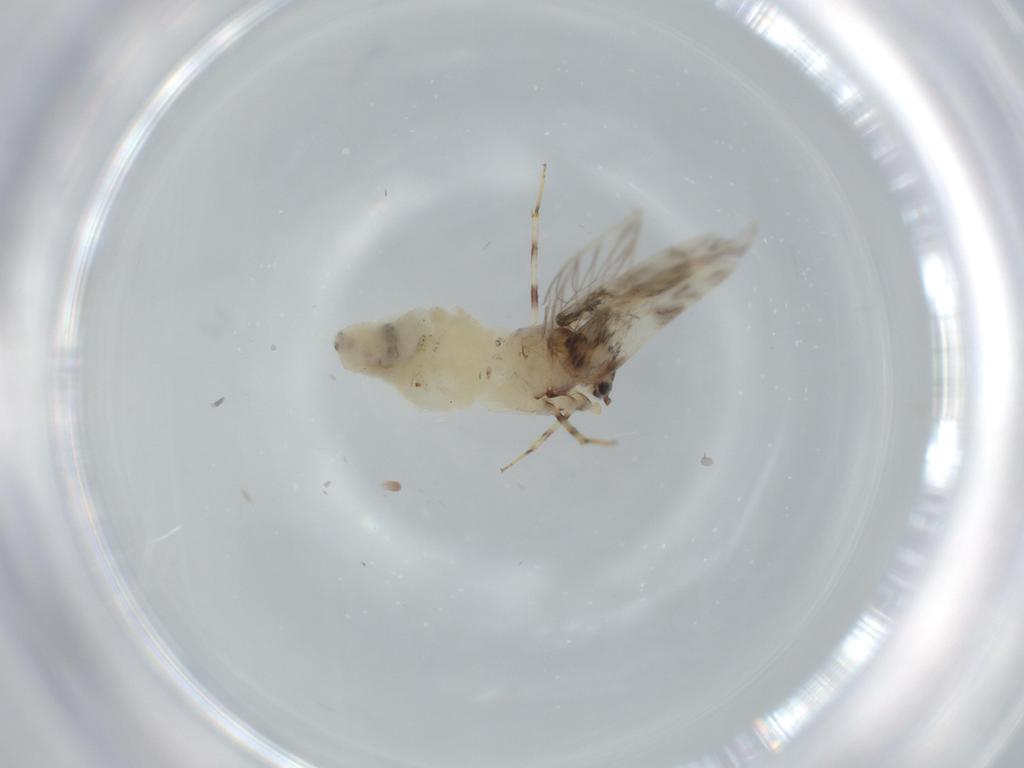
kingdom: Animalia
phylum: Arthropoda
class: Insecta
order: Psocodea
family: Lepidopsocidae
